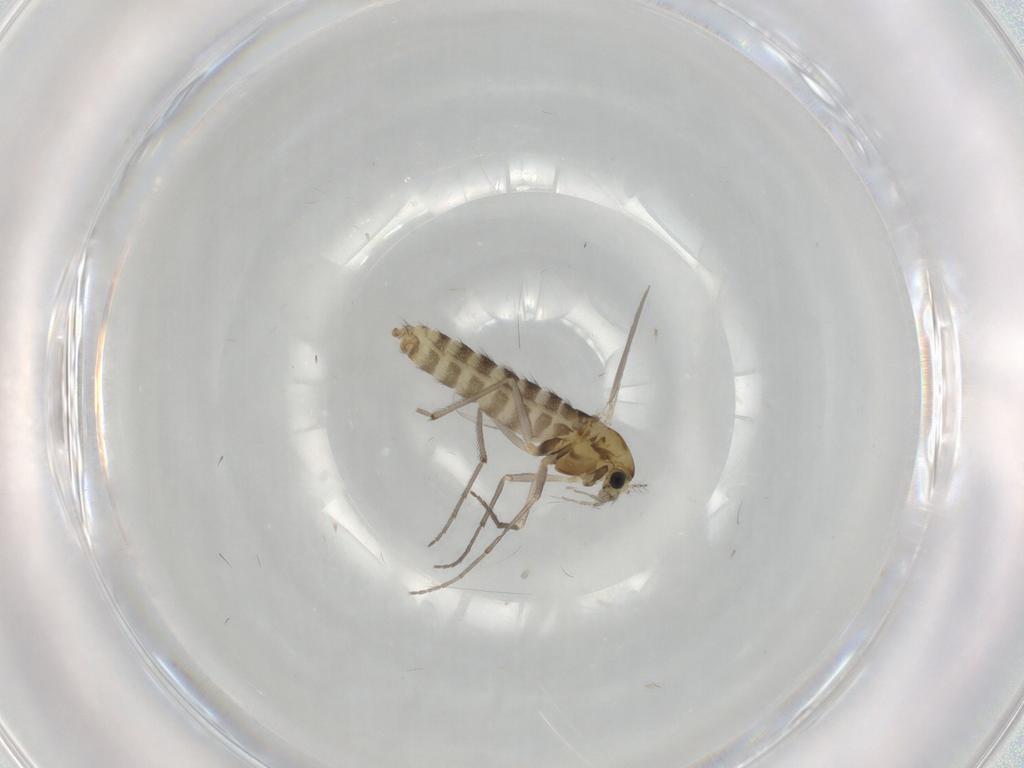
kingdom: Animalia
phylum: Arthropoda
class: Insecta
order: Diptera
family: Chironomidae
